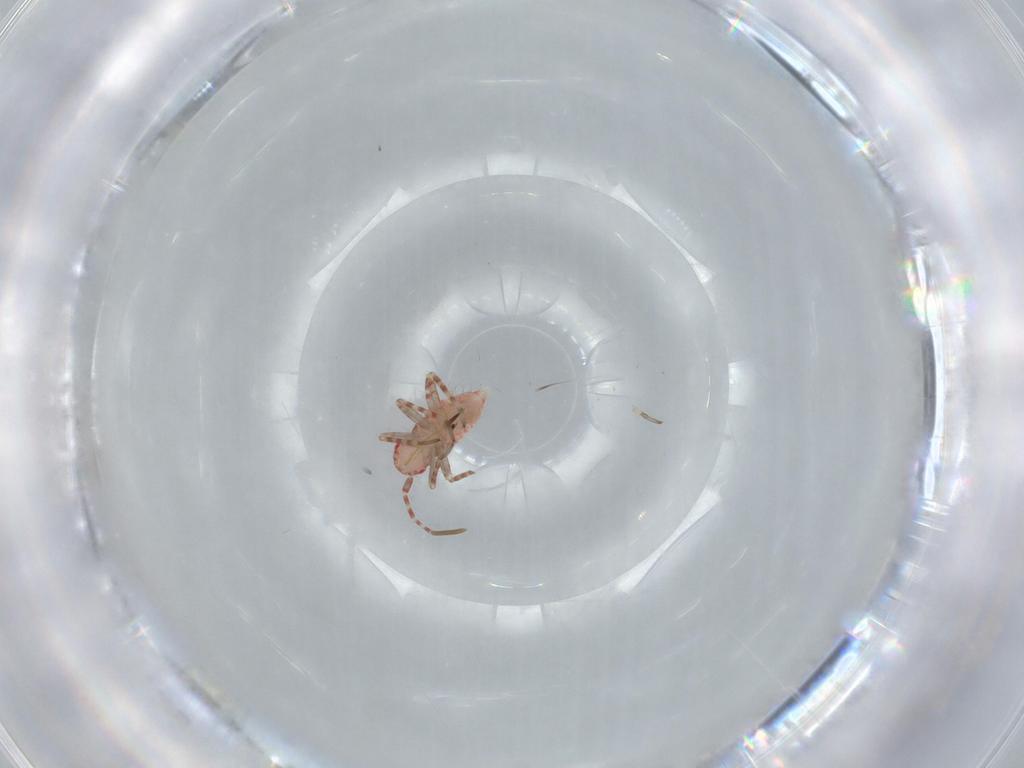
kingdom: Animalia
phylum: Arthropoda
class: Insecta
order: Hemiptera
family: Miridae
